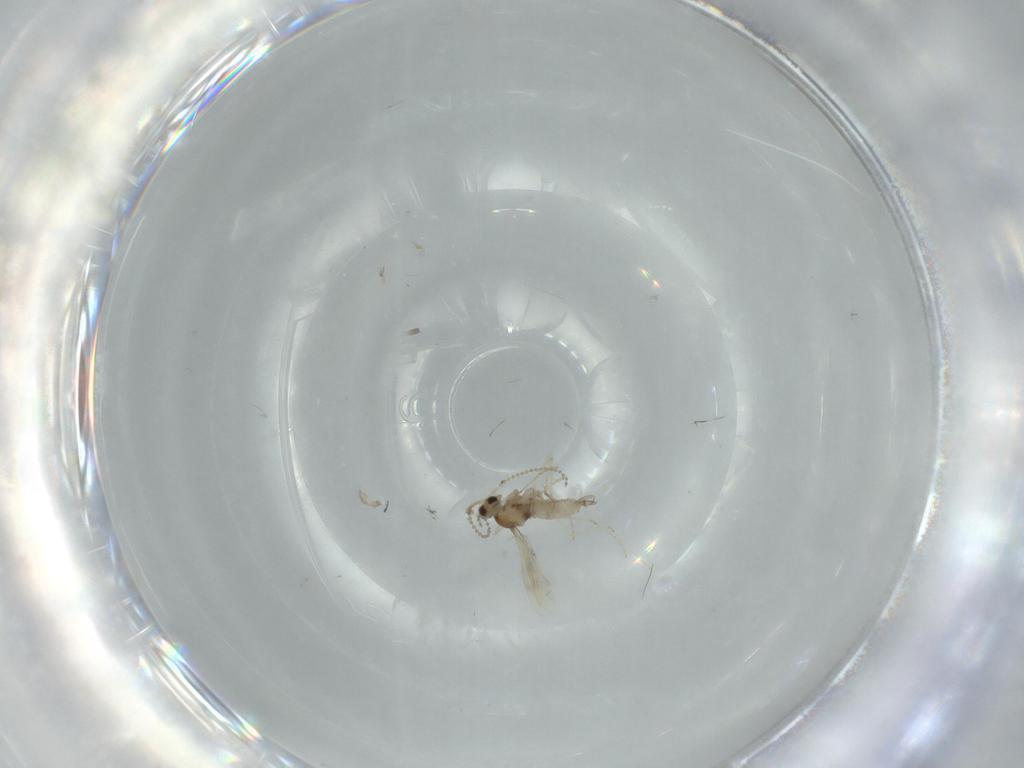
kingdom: Animalia
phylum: Arthropoda
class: Insecta
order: Diptera
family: Cecidomyiidae
